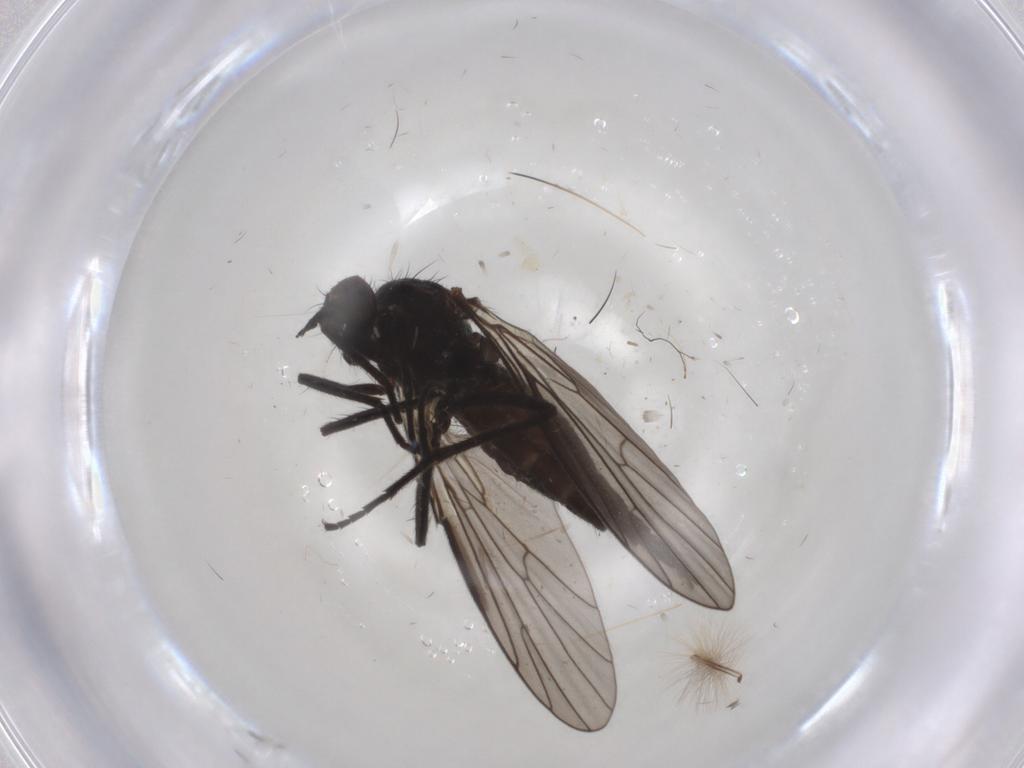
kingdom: Animalia
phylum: Arthropoda
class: Insecta
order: Diptera
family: Empididae
